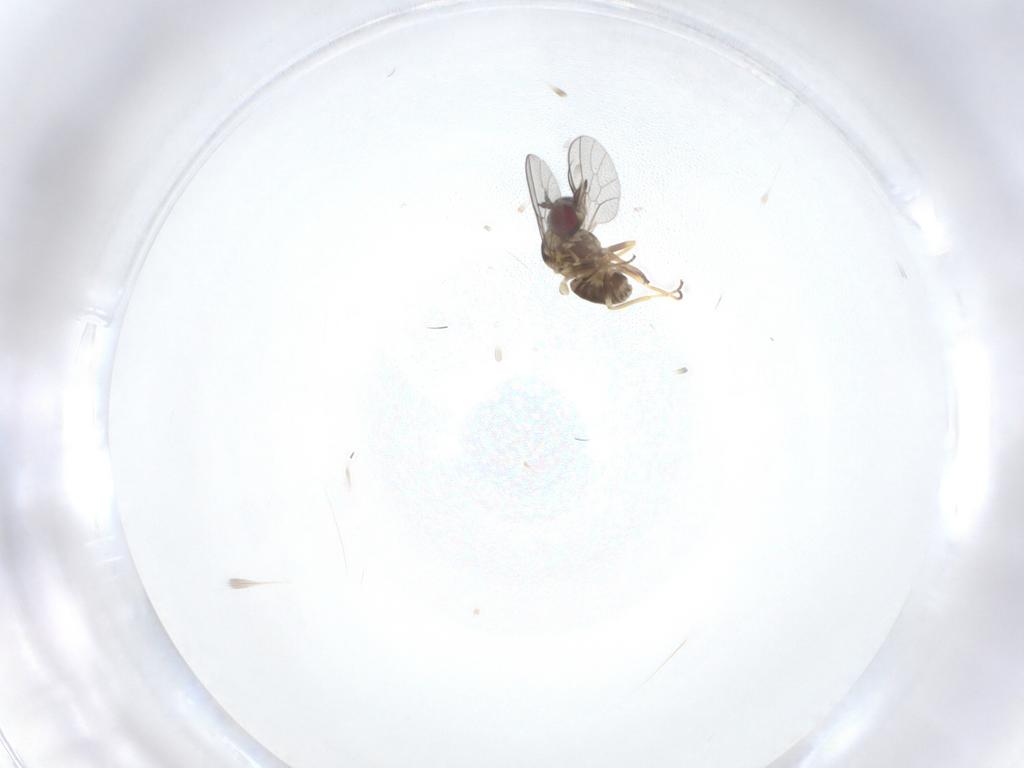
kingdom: Animalia
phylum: Arthropoda
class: Insecta
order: Diptera
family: Bombyliidae
